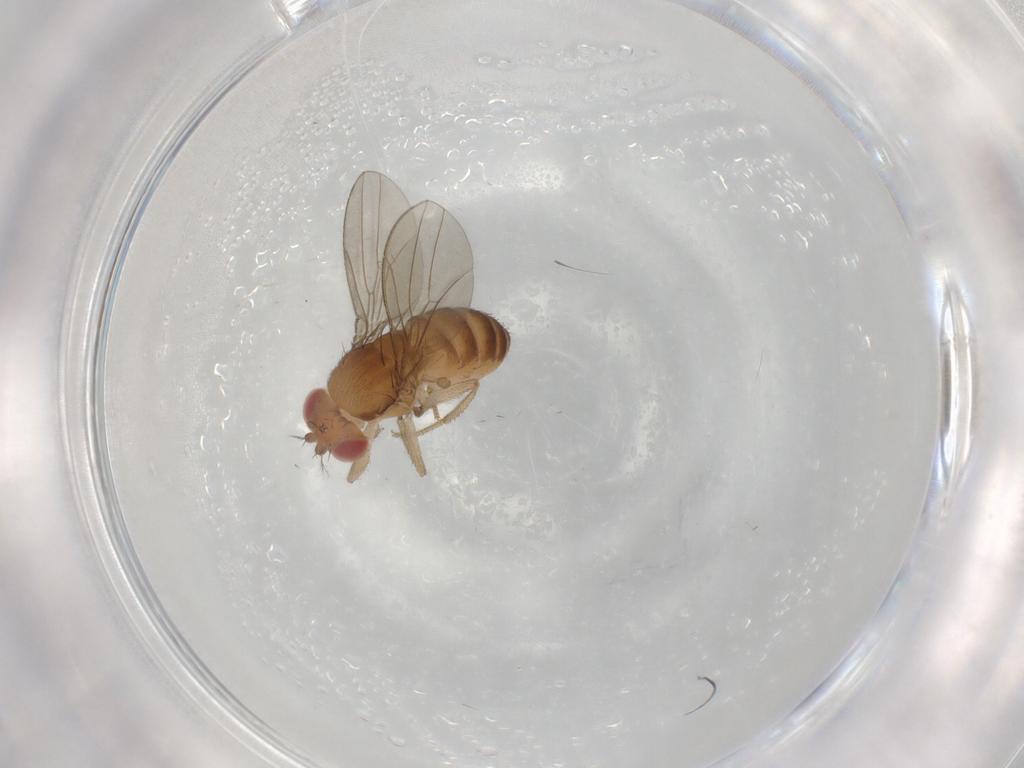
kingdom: Animalia
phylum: Arthropoda
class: Insecta
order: Diptera
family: Drosophilidae
